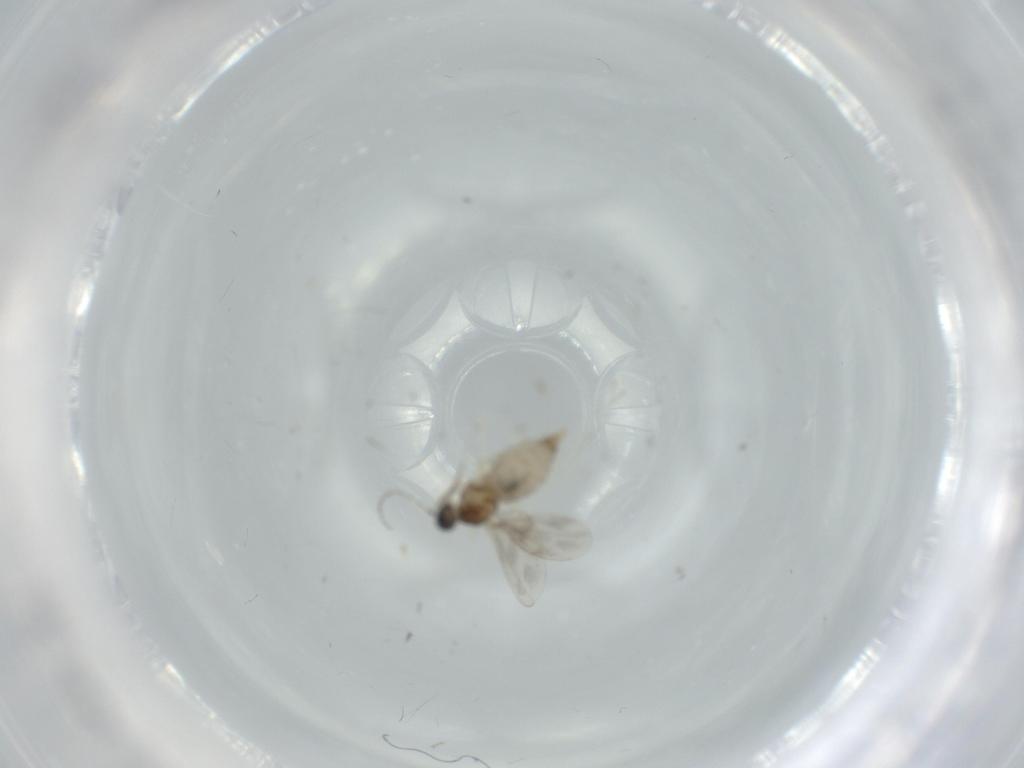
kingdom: Animalia
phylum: Arthropoda
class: Insecta
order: Diptera
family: Cecidomyiidae
